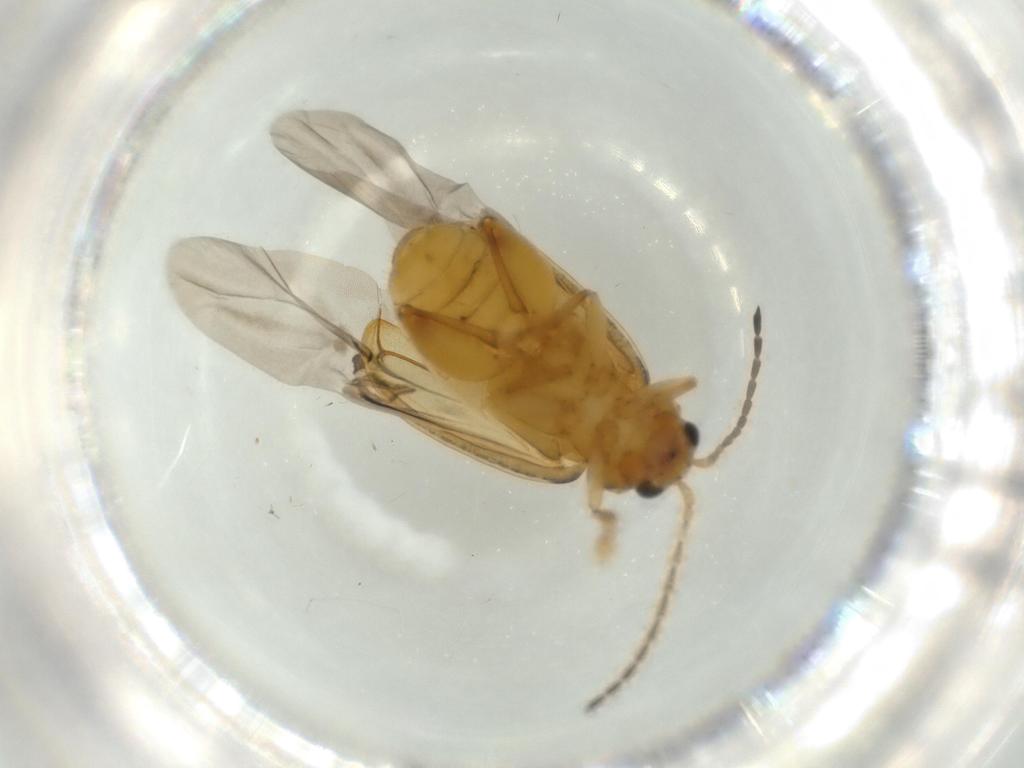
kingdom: Animalia
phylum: Arthropoda
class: Insecta
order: Coleoptera
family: Chrysomelidae
